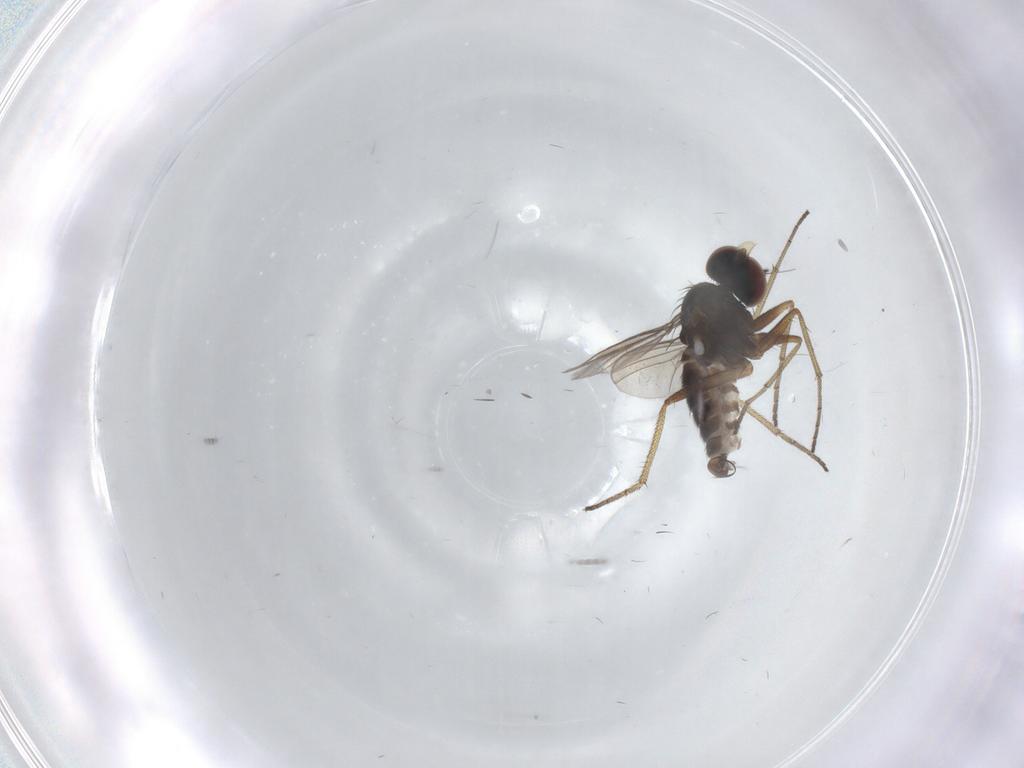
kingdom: Animalia
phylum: Arthropoda
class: Insecta
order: Diptera
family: Dolichopodidae
